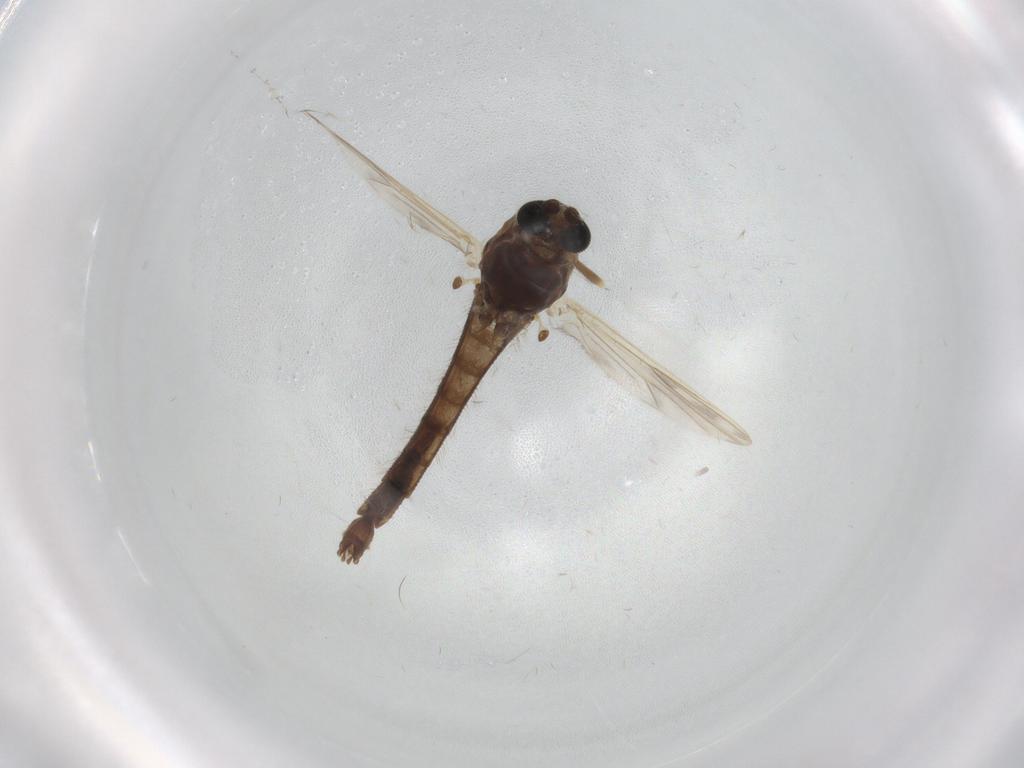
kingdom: Animalia
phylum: Arthropoda
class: Insecta
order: Diptera
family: Chironomidae
